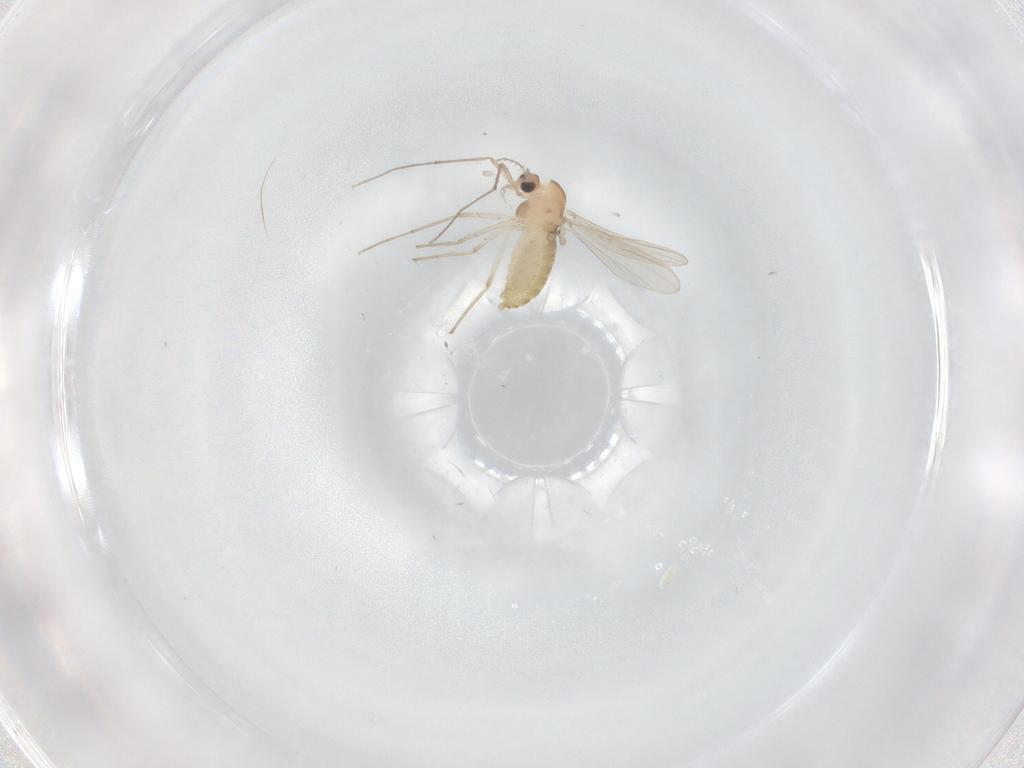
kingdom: Animalia
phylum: Arthropoda
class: Insecta
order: Diptera
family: Chironomidae
